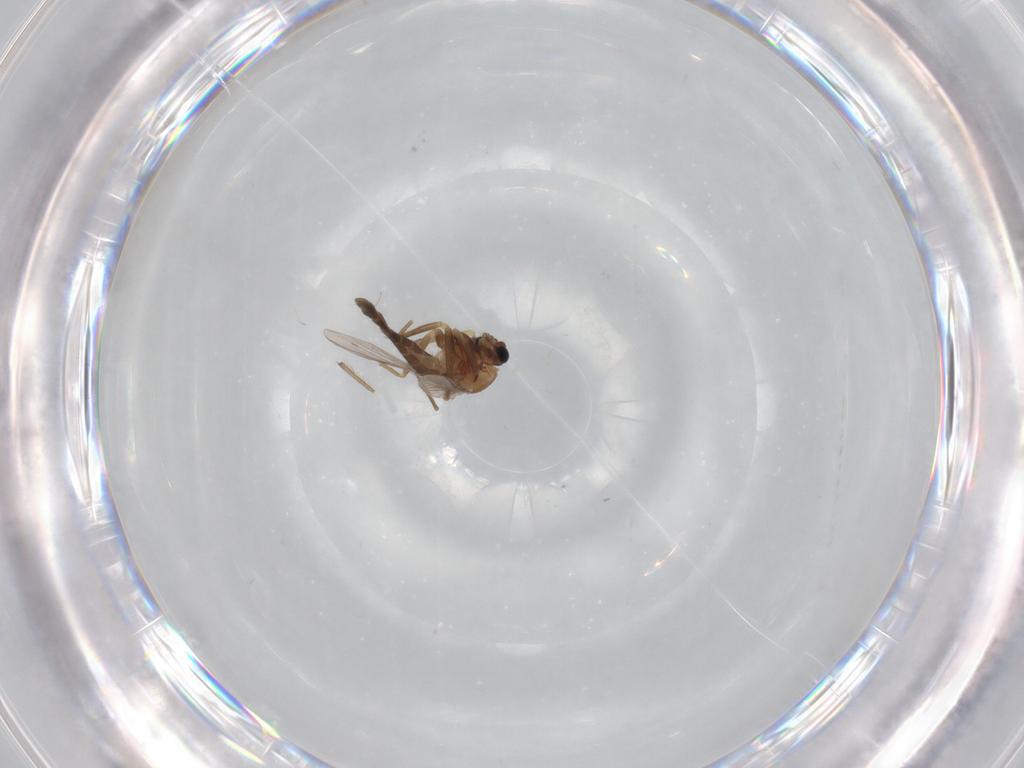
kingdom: Animalia
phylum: Arthropoda
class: Insecta
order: Diptera
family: Chironomidae
